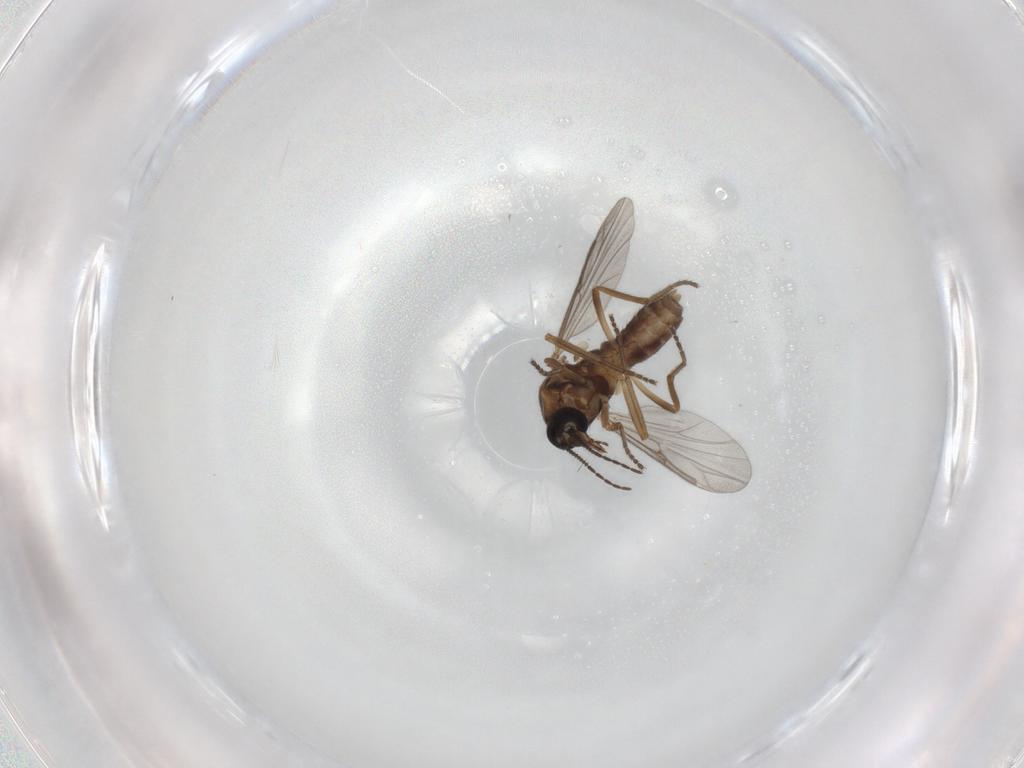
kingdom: Animalia
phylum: Arthropoda
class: Insecta
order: Diptera
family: Ceratopogonidae
